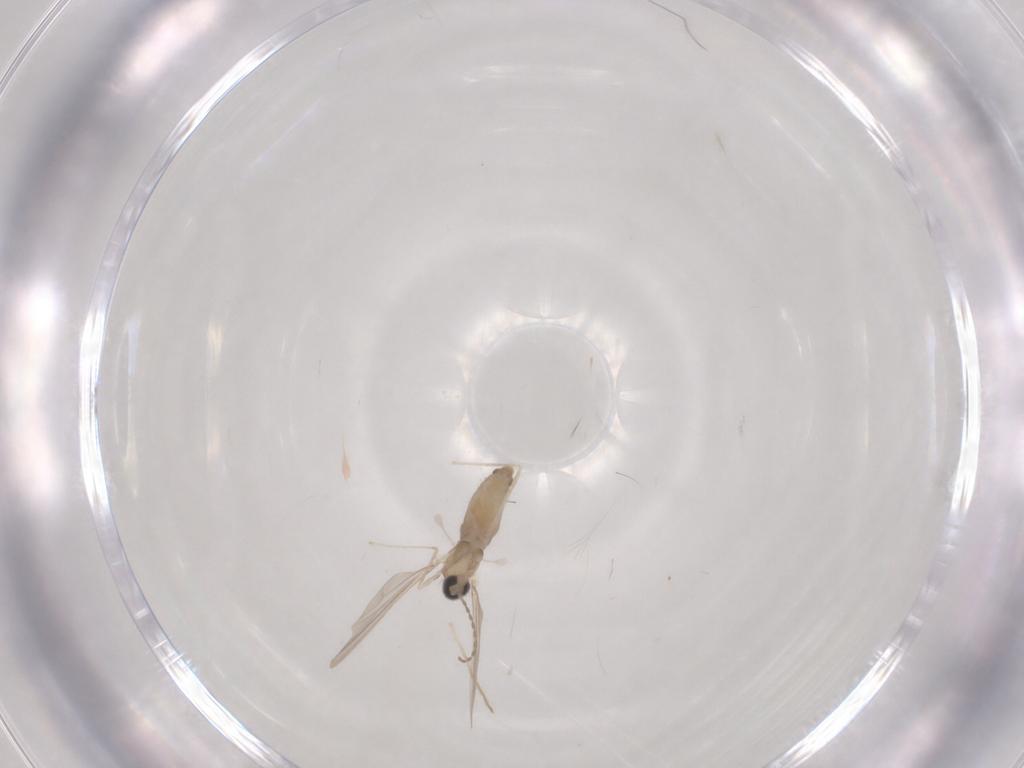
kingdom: Animalia
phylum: Arthropoda
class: Insecta
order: Diptera
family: Cecidomyiidae
